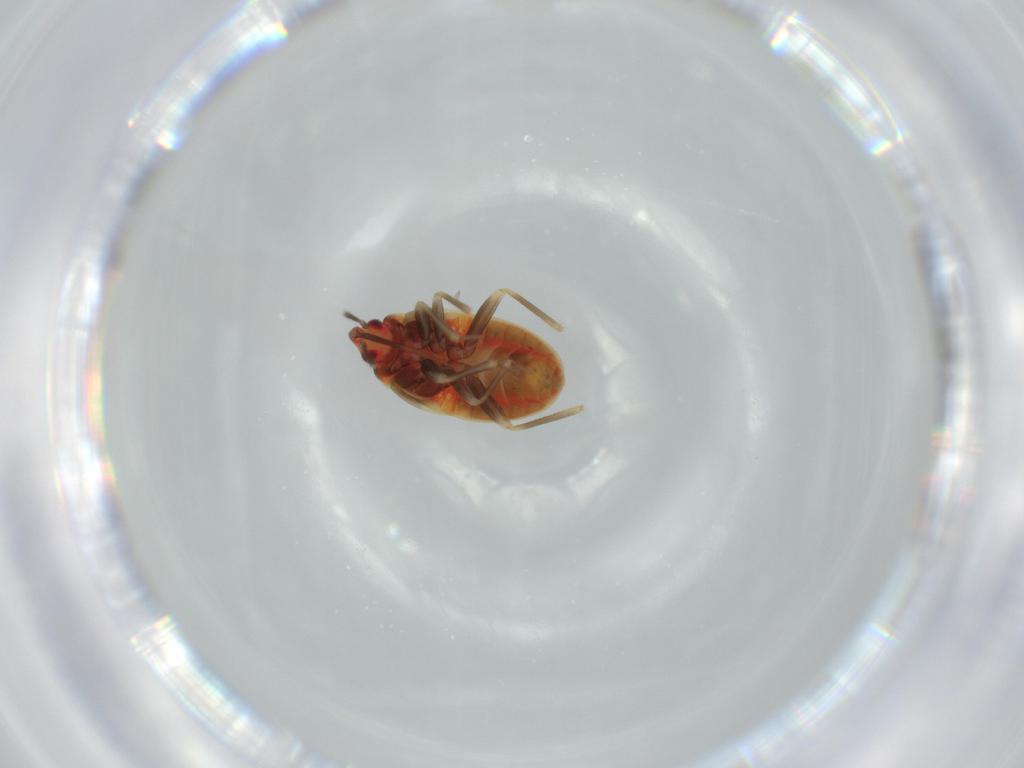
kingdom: Animalia
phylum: Arthropoda
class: Insecta
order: Hemiptera
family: Anthocoridae
